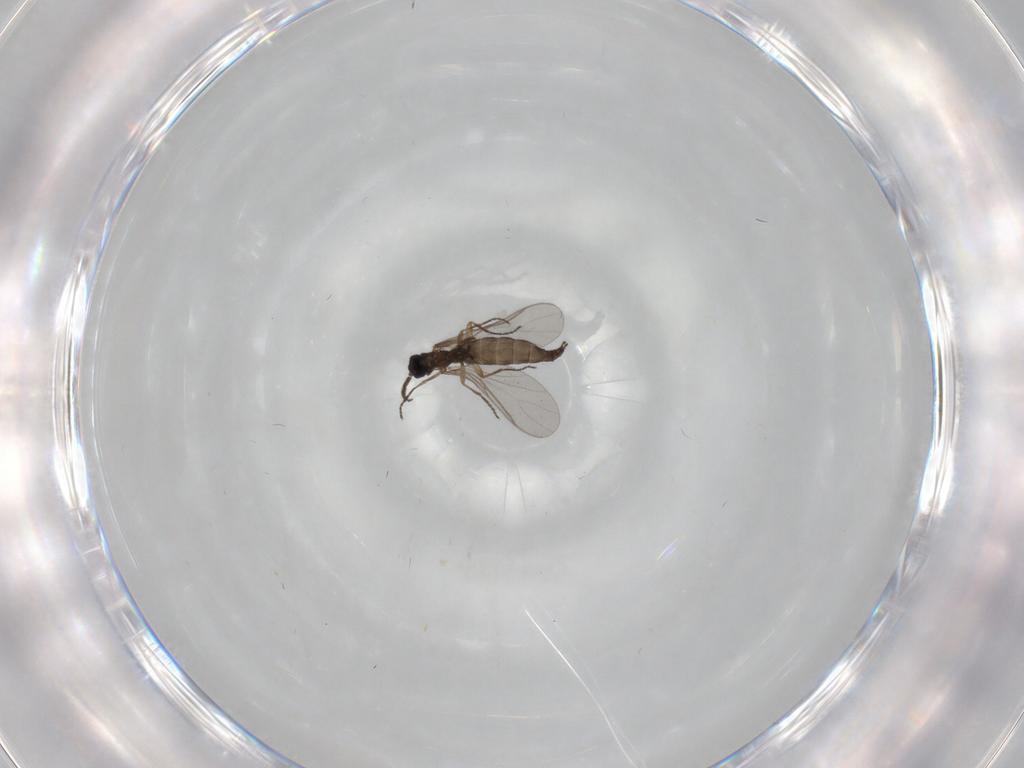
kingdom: Animalia
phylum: Arthropoda
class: Insecta
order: Diptera
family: Sciaridae
